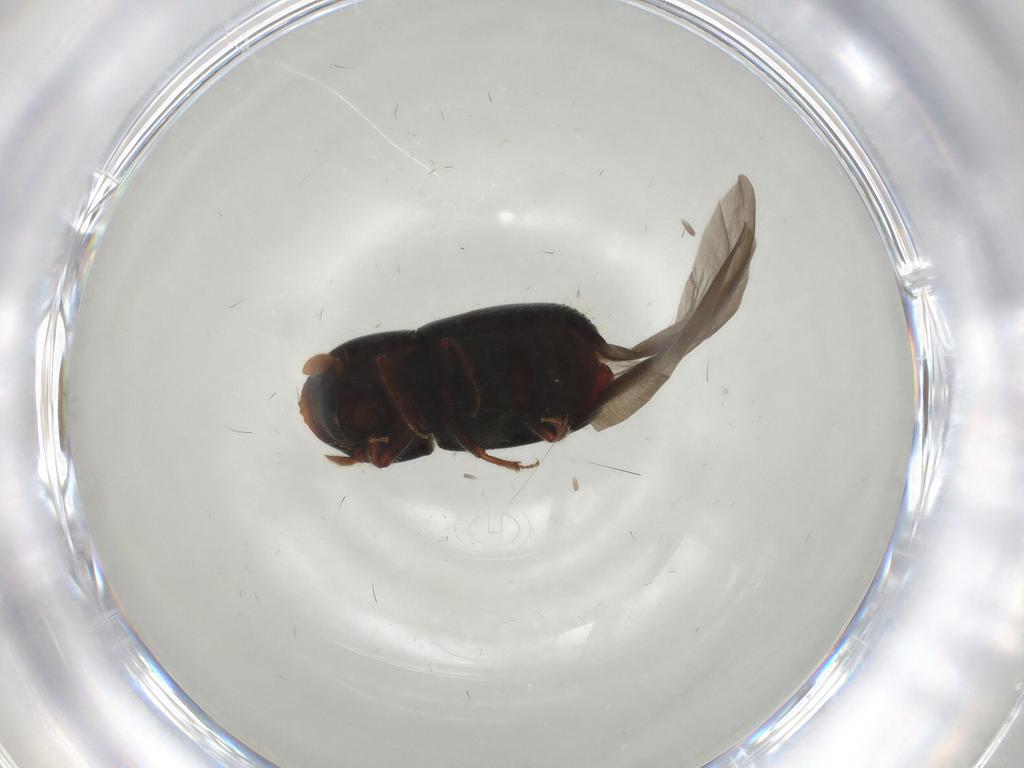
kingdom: Animalia
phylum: Arthropoda
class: Insecta
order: Coleoptera
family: Curculionidae
